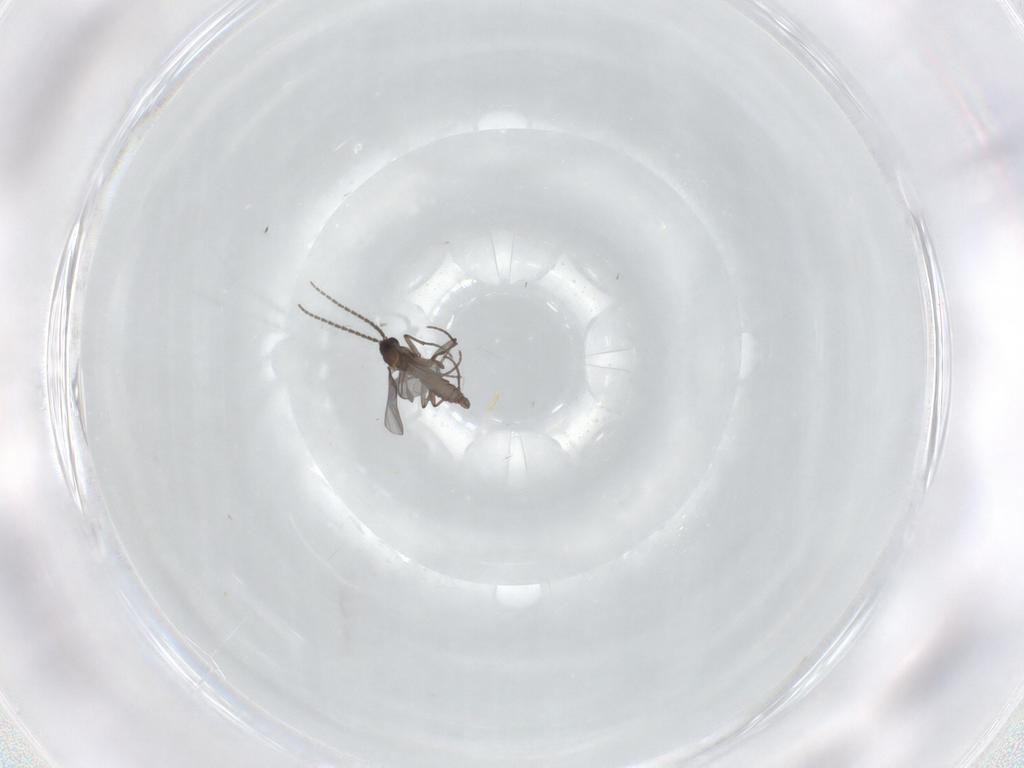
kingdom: Animalia
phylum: Arthropoda
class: Insecta
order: Diptera
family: Sciaridae
